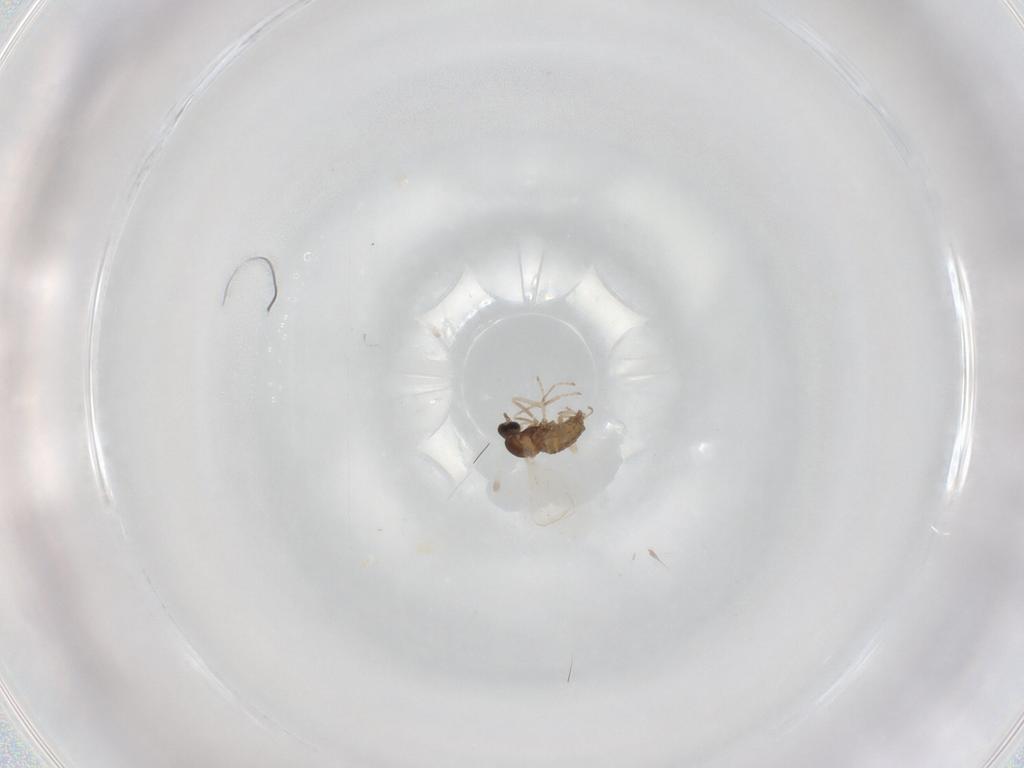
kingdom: Animalia
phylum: Arthropoda
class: Insecta
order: Diptera
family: Cecidomyiidae
